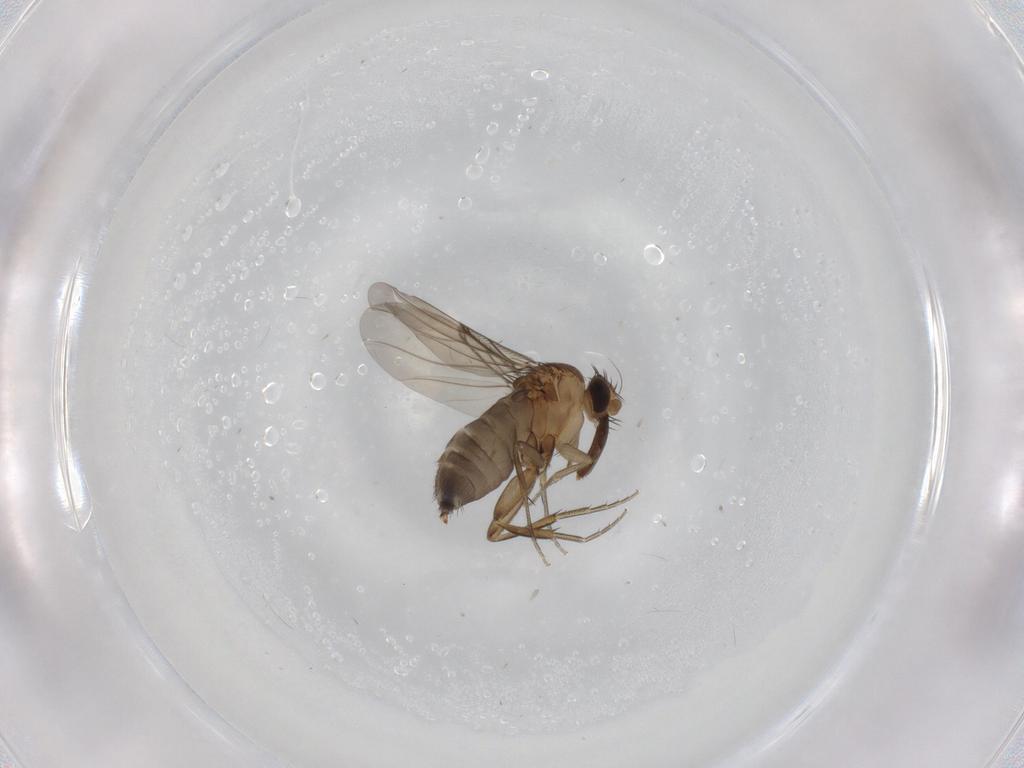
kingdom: Animalia
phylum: Arthropoda
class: Insecta
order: Diptera
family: Phoridae
